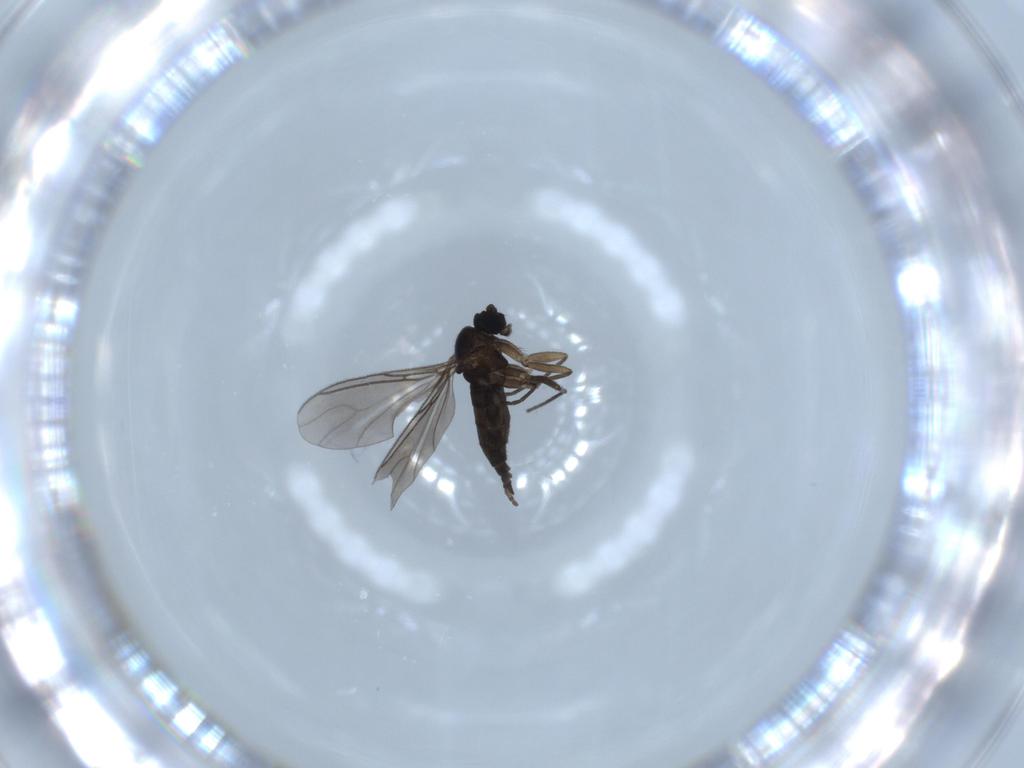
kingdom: Animalia
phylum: Arthropoda
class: Insecta
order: Diptera
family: Sciaridae
